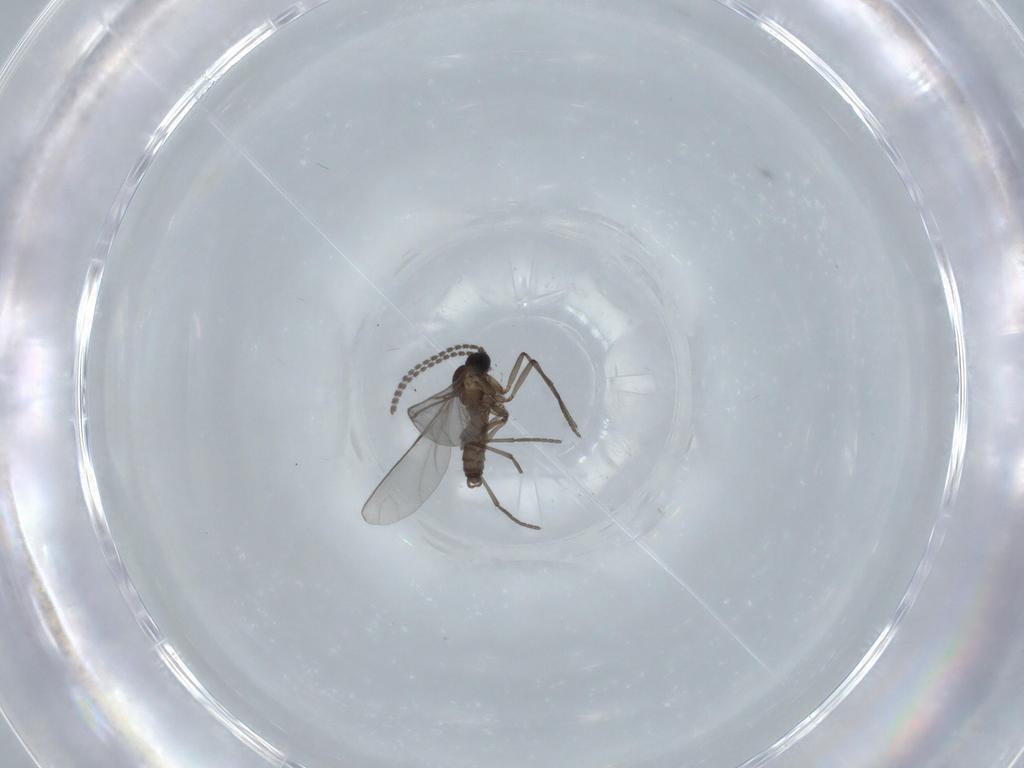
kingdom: Animalia
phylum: Arthropoda
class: Insecta
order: Diptera
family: Sciaridae
